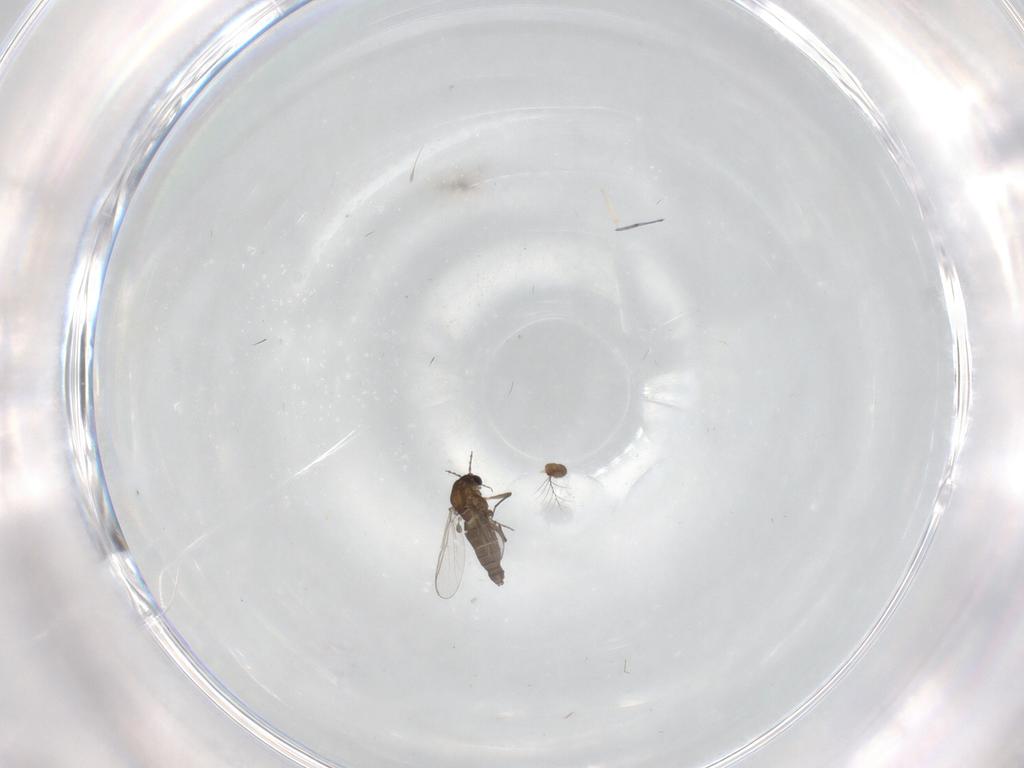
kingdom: Animalia
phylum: Arthropoda
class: Insecta
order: Diptera
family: Chironomidae
